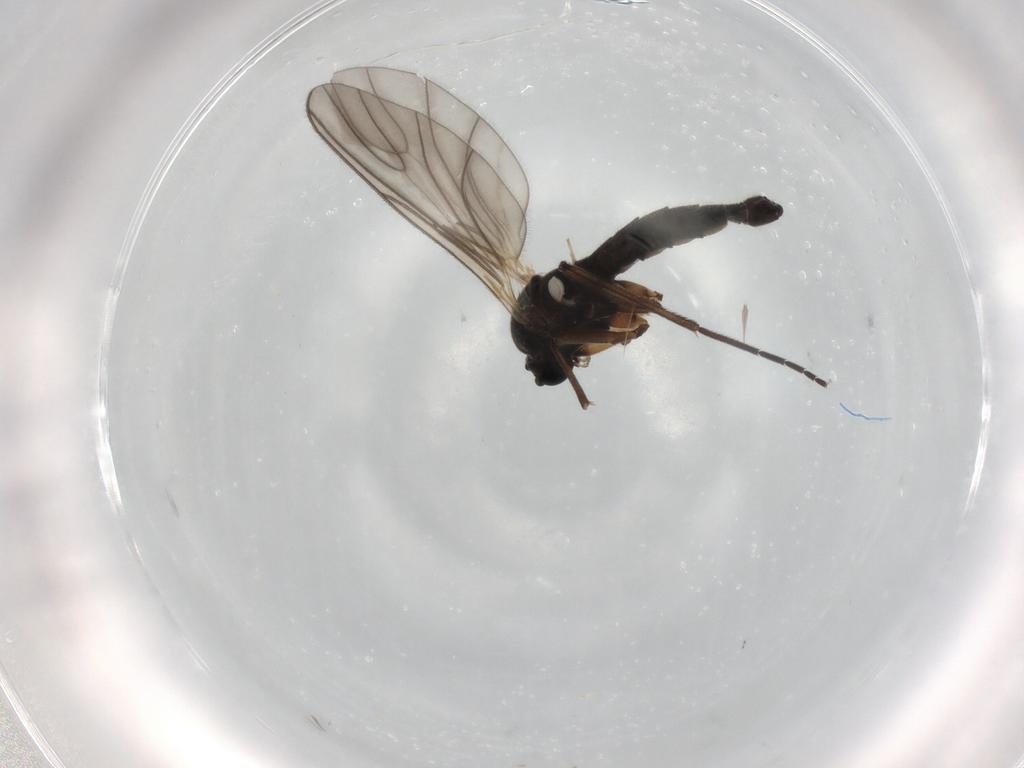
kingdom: Animalia
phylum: Arthropoda
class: Insecta
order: Diptera
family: Sciaridae
